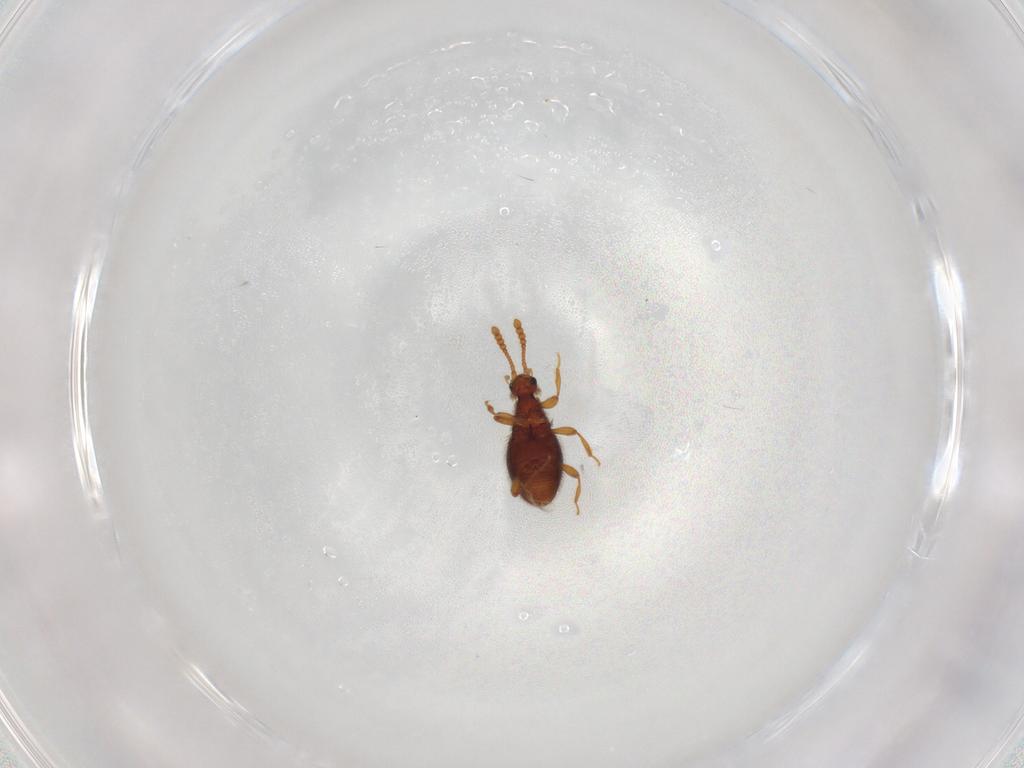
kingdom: Animalia
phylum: Arthropoda
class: Insecta
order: Coleoptera
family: Staphylinidae
